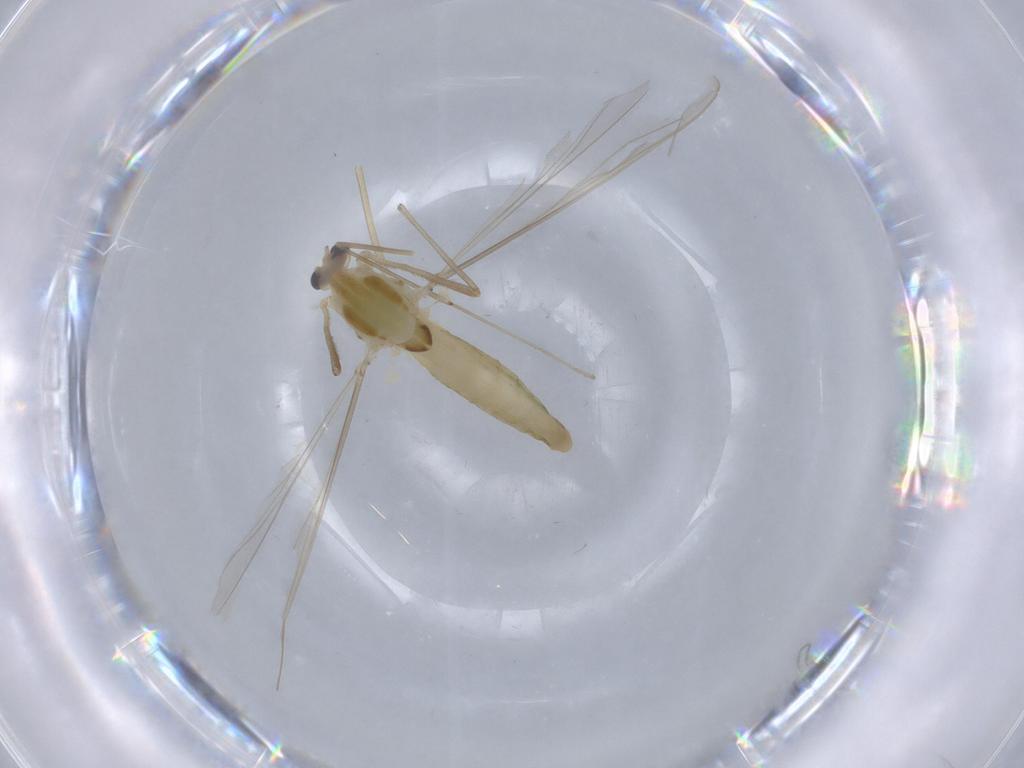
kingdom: Animalia
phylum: Arthropoda
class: Insecta
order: Diptera
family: Chironomidae
